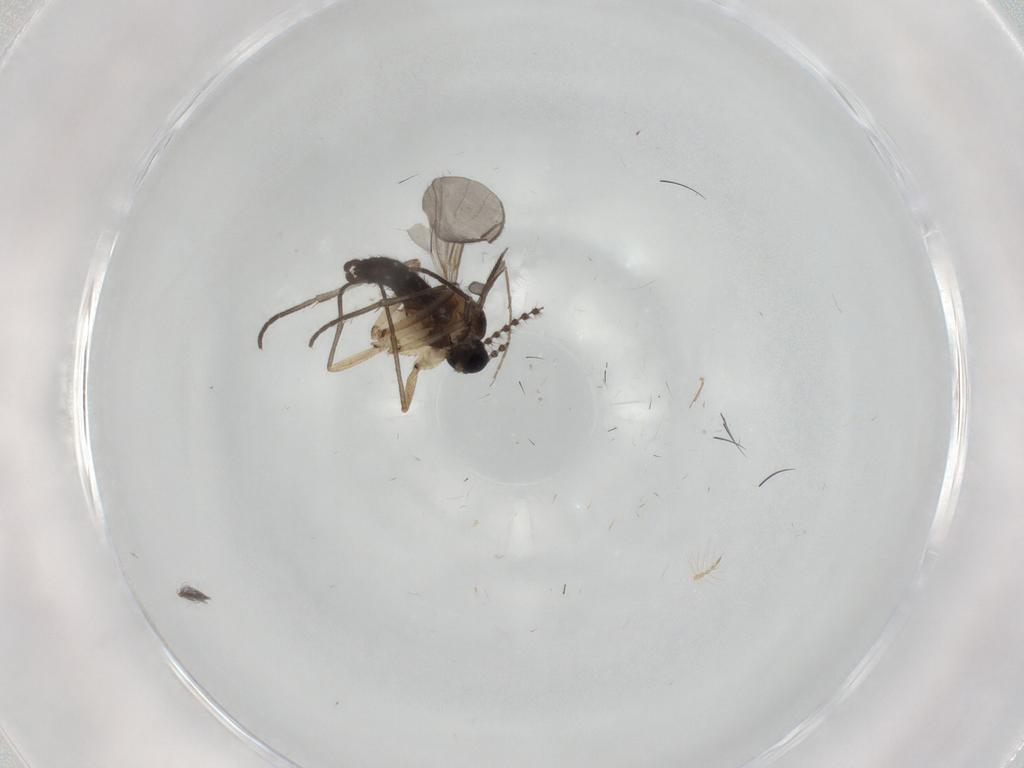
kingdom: Animalia
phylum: Arthropoda
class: Insecta
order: Diptera
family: Sciaridae
